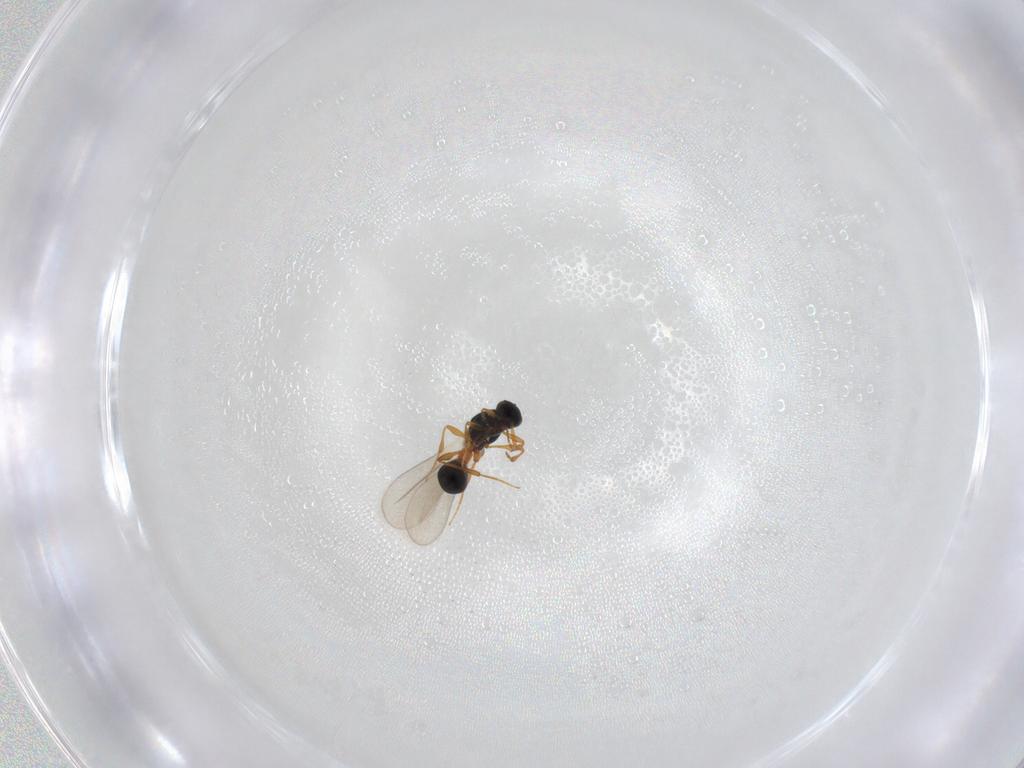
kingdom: Animalia
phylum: Arthropoda
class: Insecta
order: Hymenoptera
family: Platygastridae
